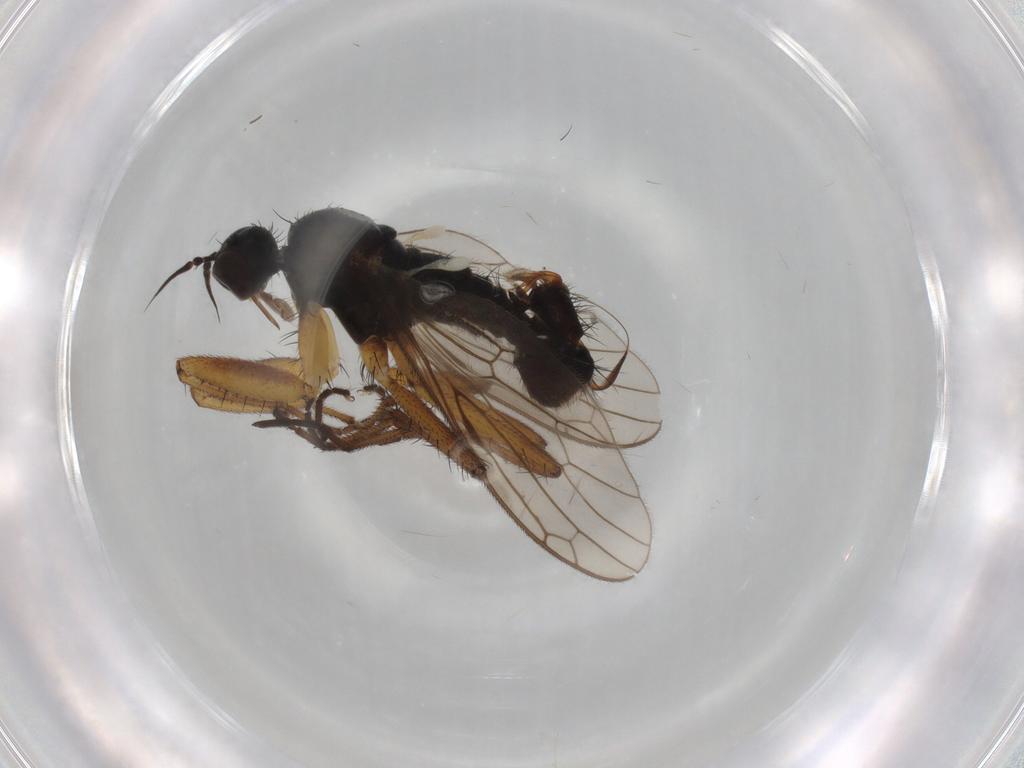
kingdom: Animalia
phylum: Arthropoda
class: Insecta
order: Diptera
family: Empididae
